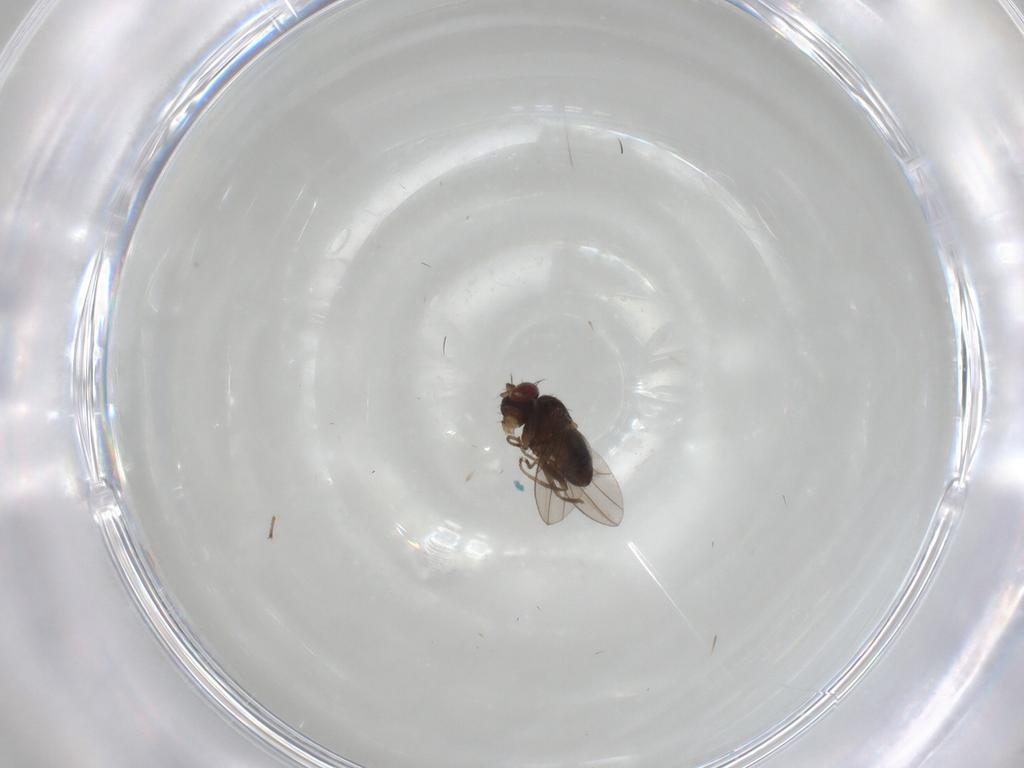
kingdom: Animalia
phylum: Arthropoda
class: Insecta
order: Diptera
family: Ephydridae
